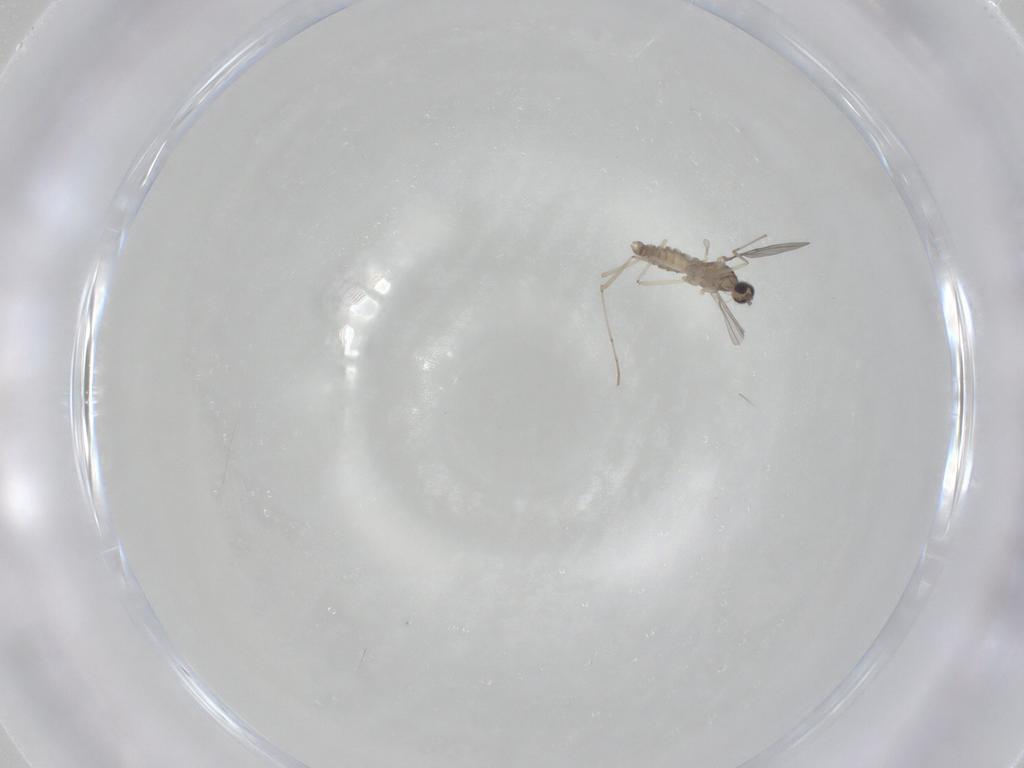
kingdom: Animalia
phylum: Arthropoda
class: Insecta
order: Diptera
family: Cecidomyiidae
